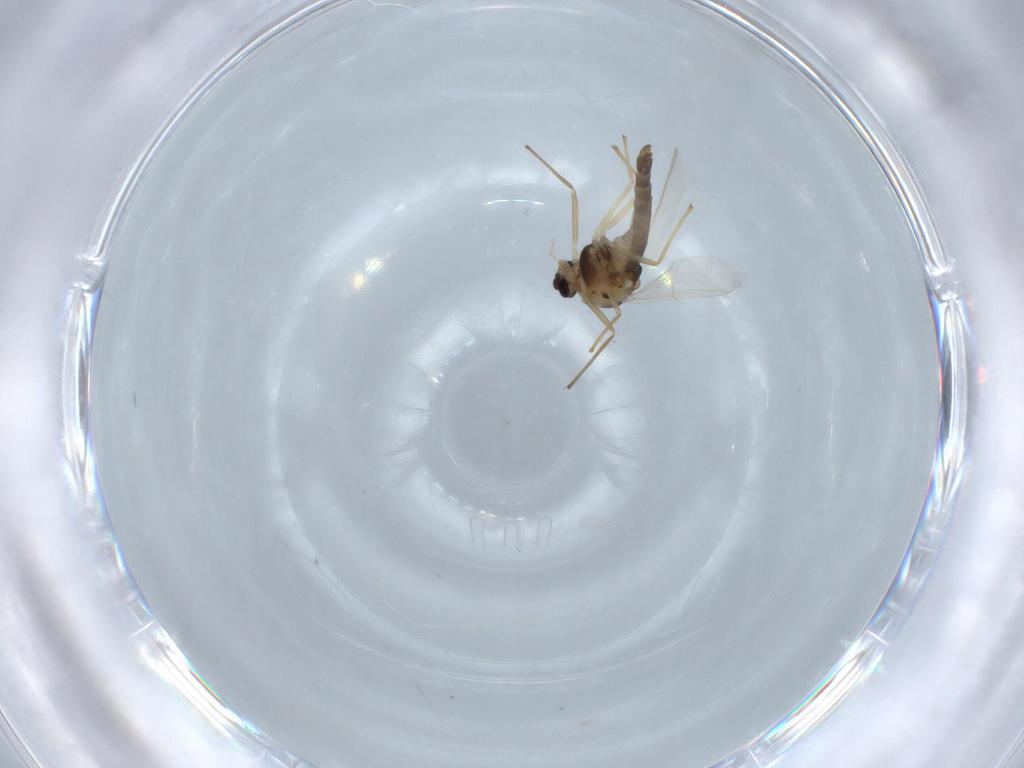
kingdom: Animalia
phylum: Arthropoda
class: Insecta
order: Diptera
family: Chironomidae
